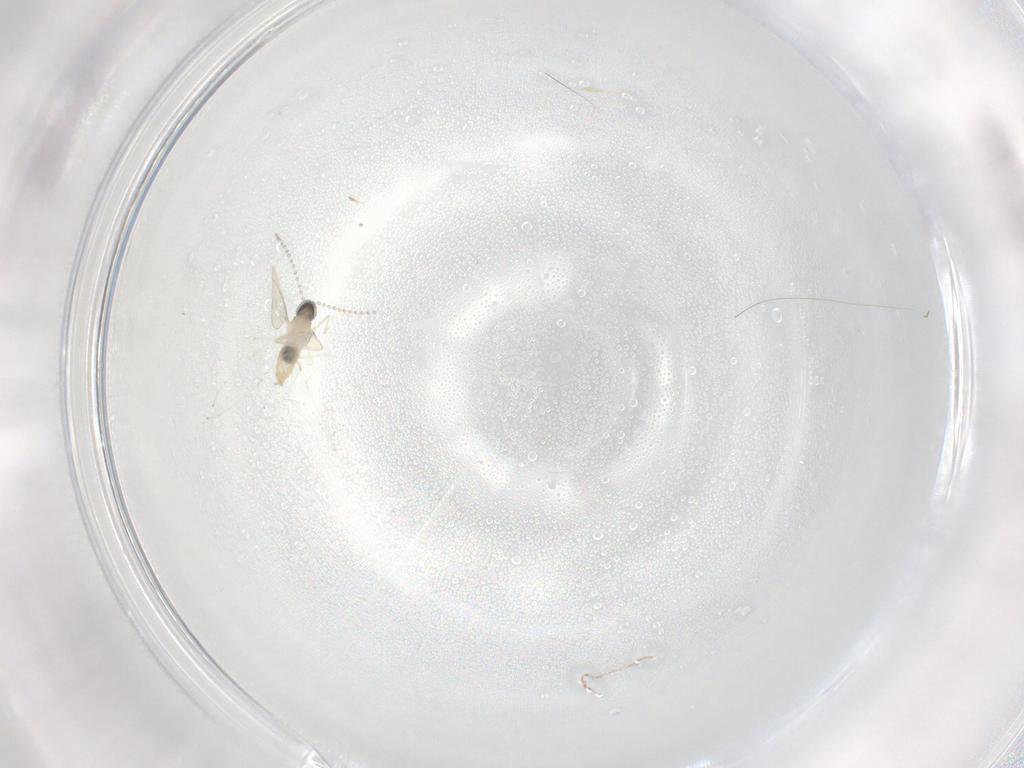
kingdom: Animalia
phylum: Arthropoda
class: Insecta
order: Diptera
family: Cecidomyiidae
